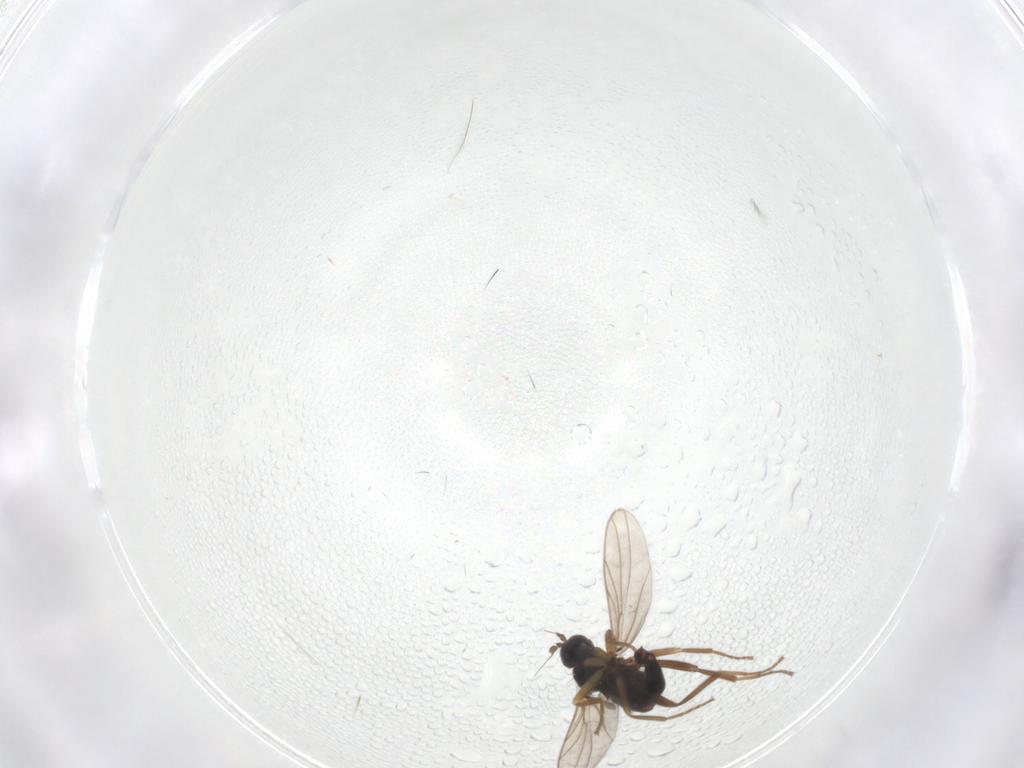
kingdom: Animalia
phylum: Arthropoda
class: Insecta
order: Diptera
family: Hybotidae
